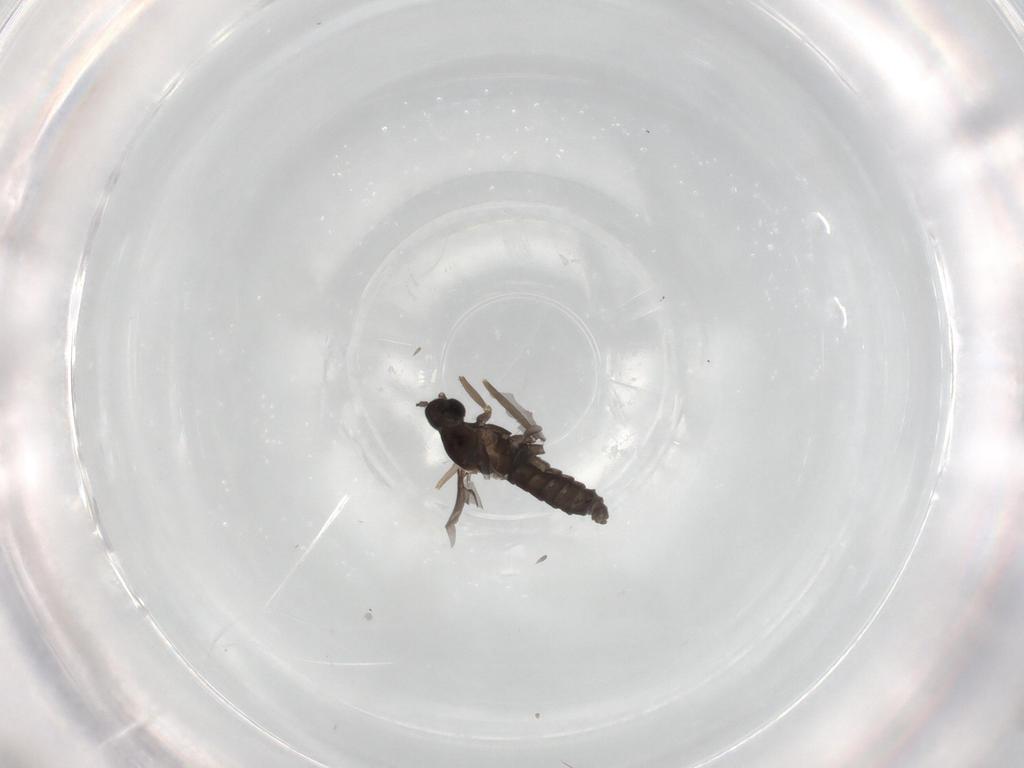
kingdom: Animalia
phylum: Arthropoda
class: Insecta
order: Diptera
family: Cecidomyiidae
